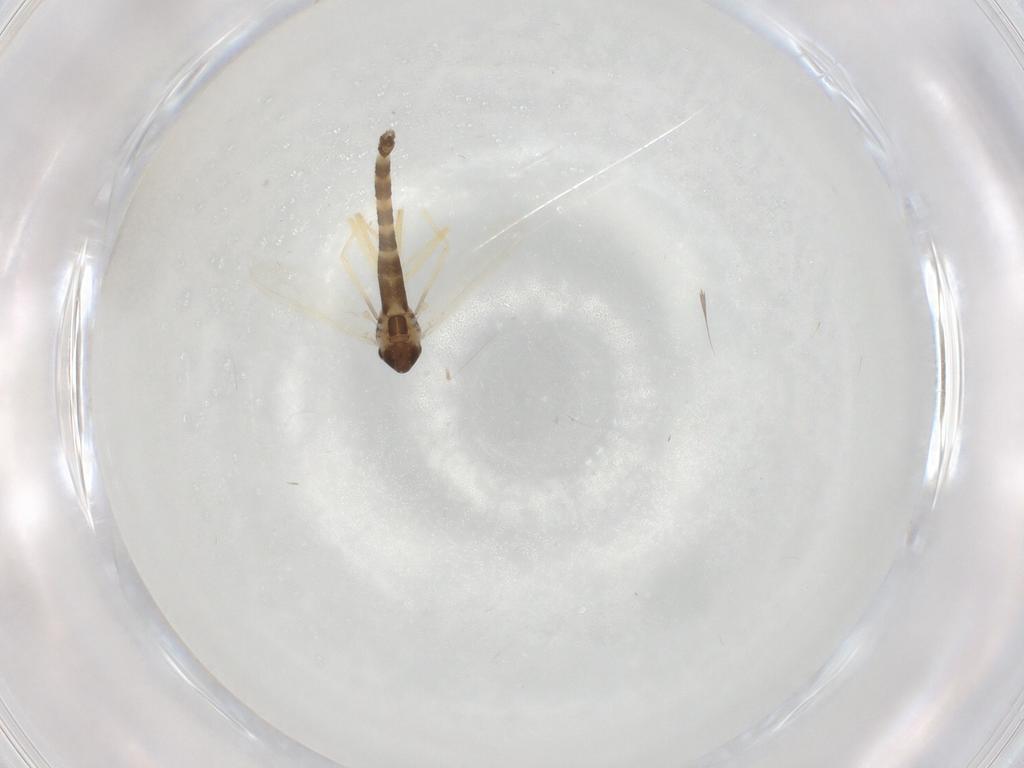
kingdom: Animalia
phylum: Arthropoda
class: Insecta
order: Diptera
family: Chironomidae
